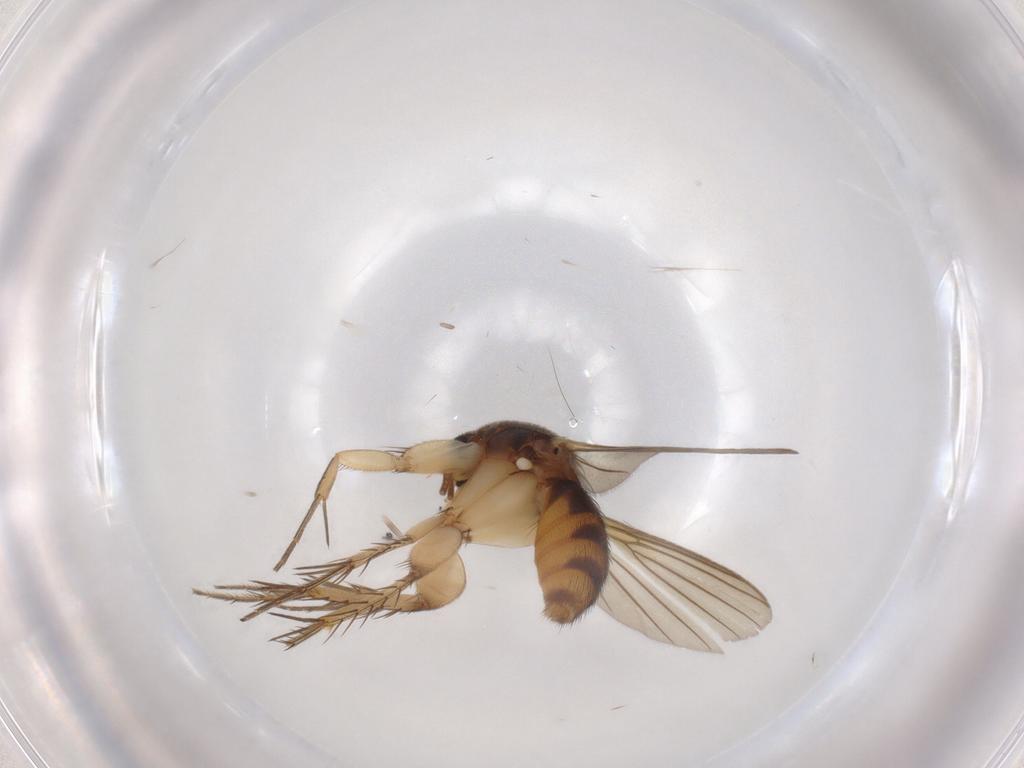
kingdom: Animalia
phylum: Arthropoda
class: Insecta
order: Diptera
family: Mycetophilidae
